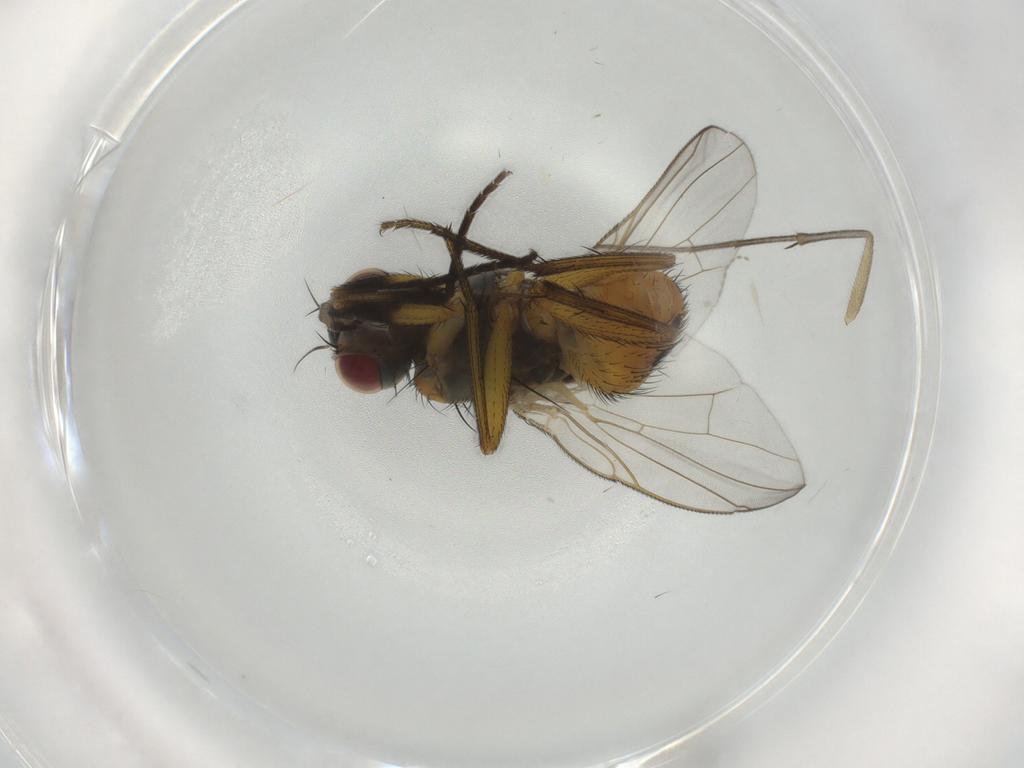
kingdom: Animalia
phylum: Arthropoda
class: Insecta
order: Diptera
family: Muscidae
